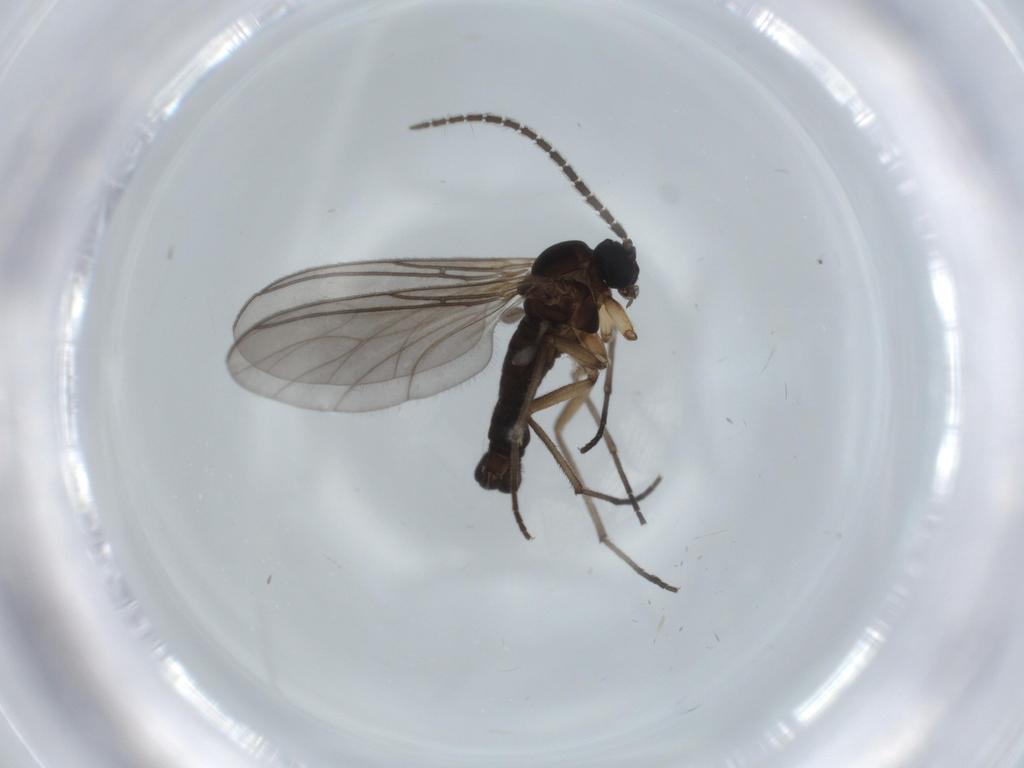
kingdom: Animalia
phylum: Arthropoda
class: Insecta
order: Diptera
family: Sciaridae
